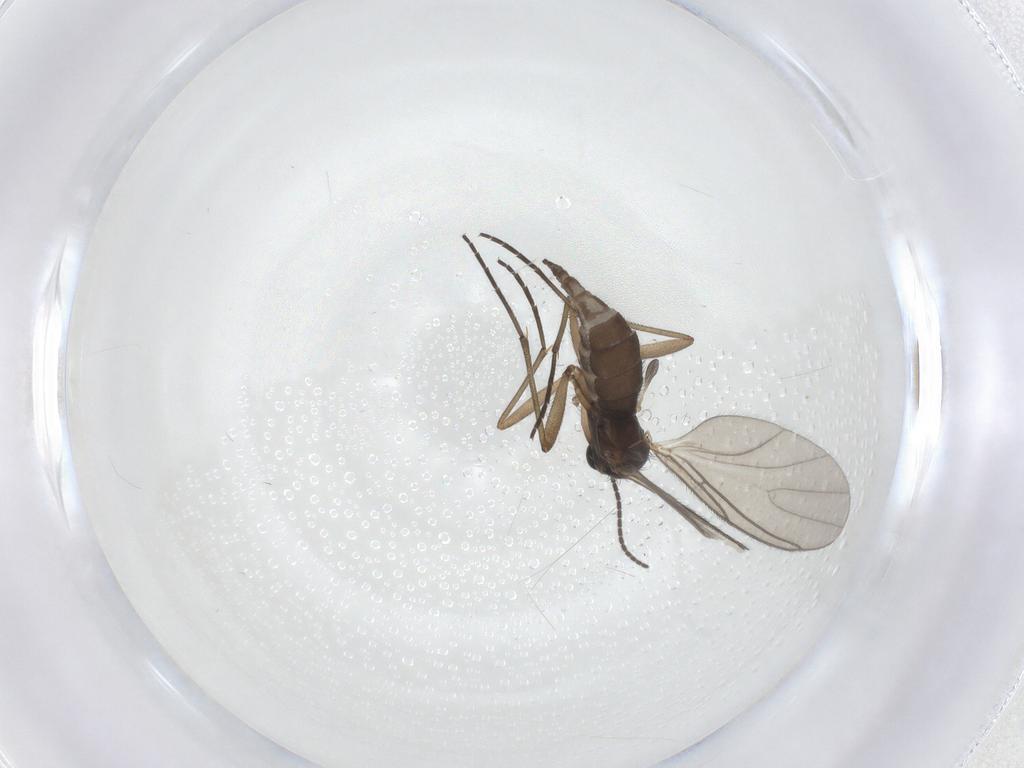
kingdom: Animalia
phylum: Arthropoda
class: Insecta
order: Diptera
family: Sciaridae
